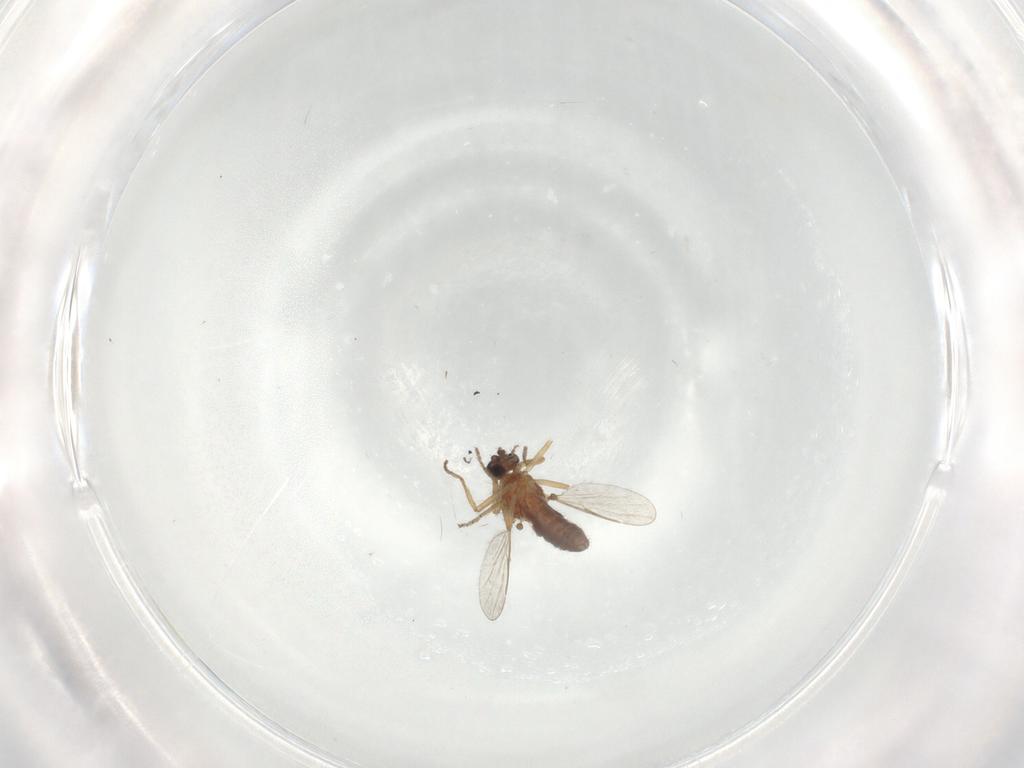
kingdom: Animalia
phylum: Arthropoda
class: Insecta
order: Diptera
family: Ceratopogonidae
